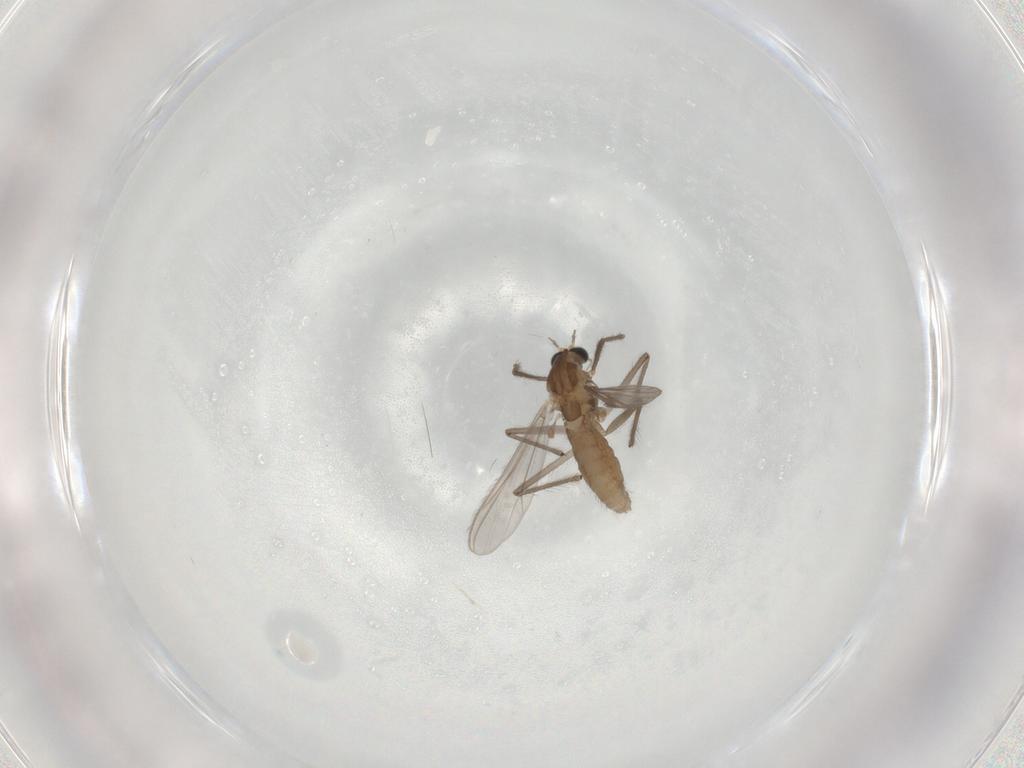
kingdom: Animalia
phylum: Arthropoda
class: Insecta
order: Diptera
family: Chironomidae
